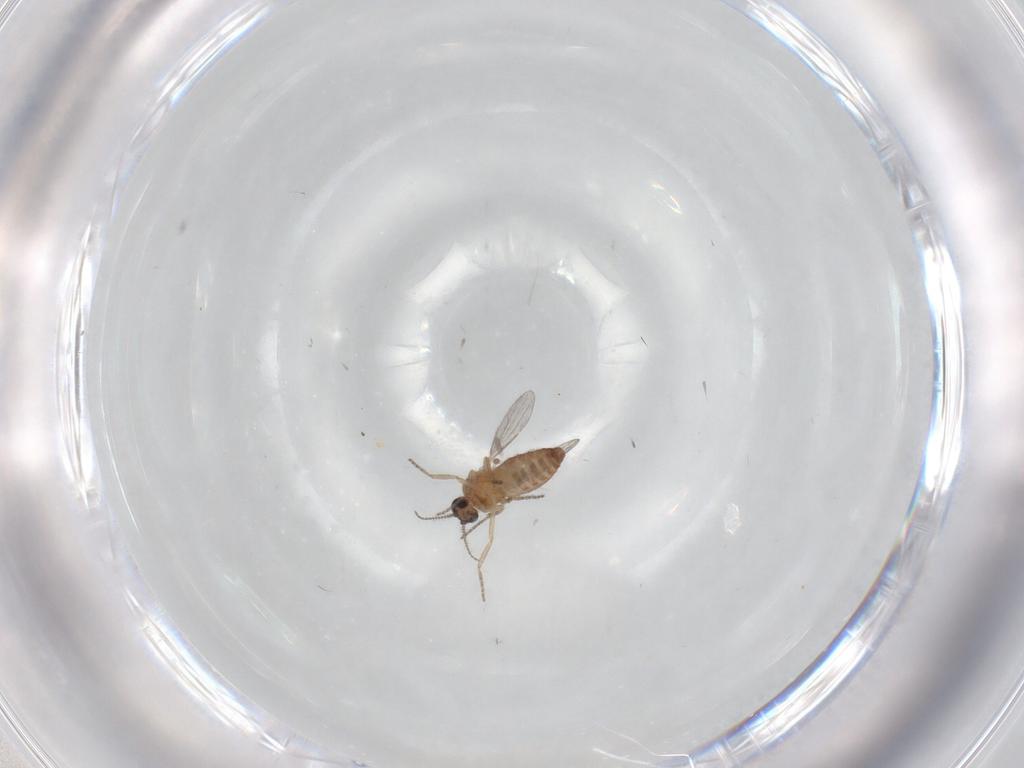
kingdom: Animalia
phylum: Arthropoda
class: Insecta
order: Diptera
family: Ceratopogonidae
